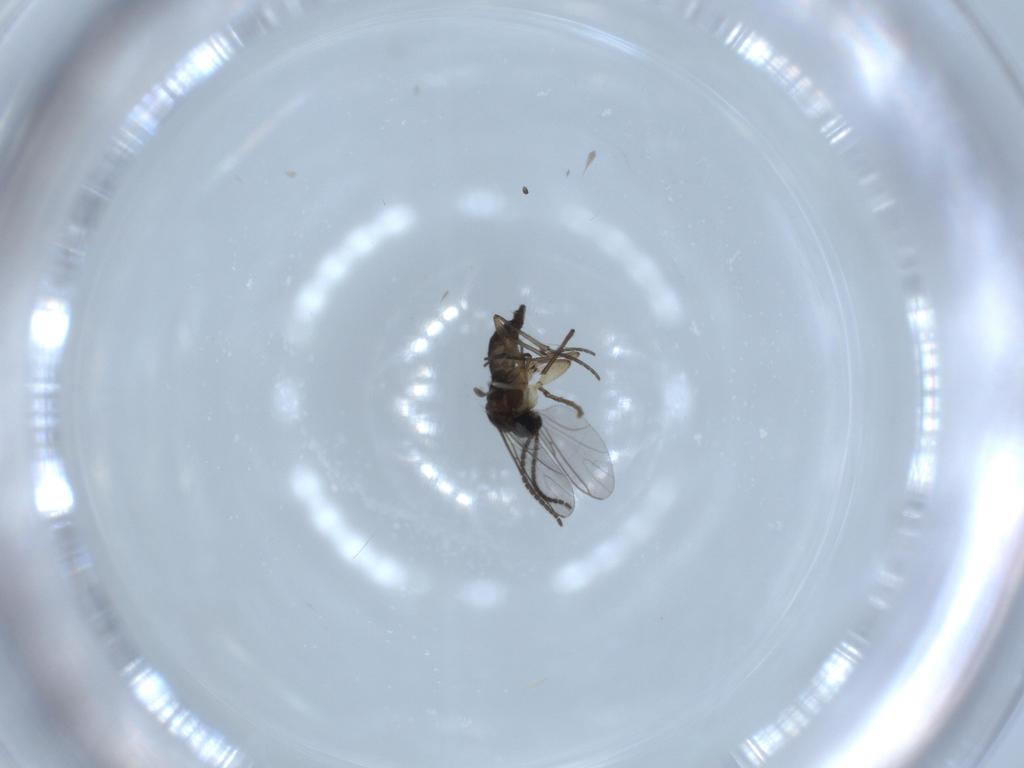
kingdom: Animalia
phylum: Arthropoda
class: Insecta
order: Diptera
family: Sciaridae
